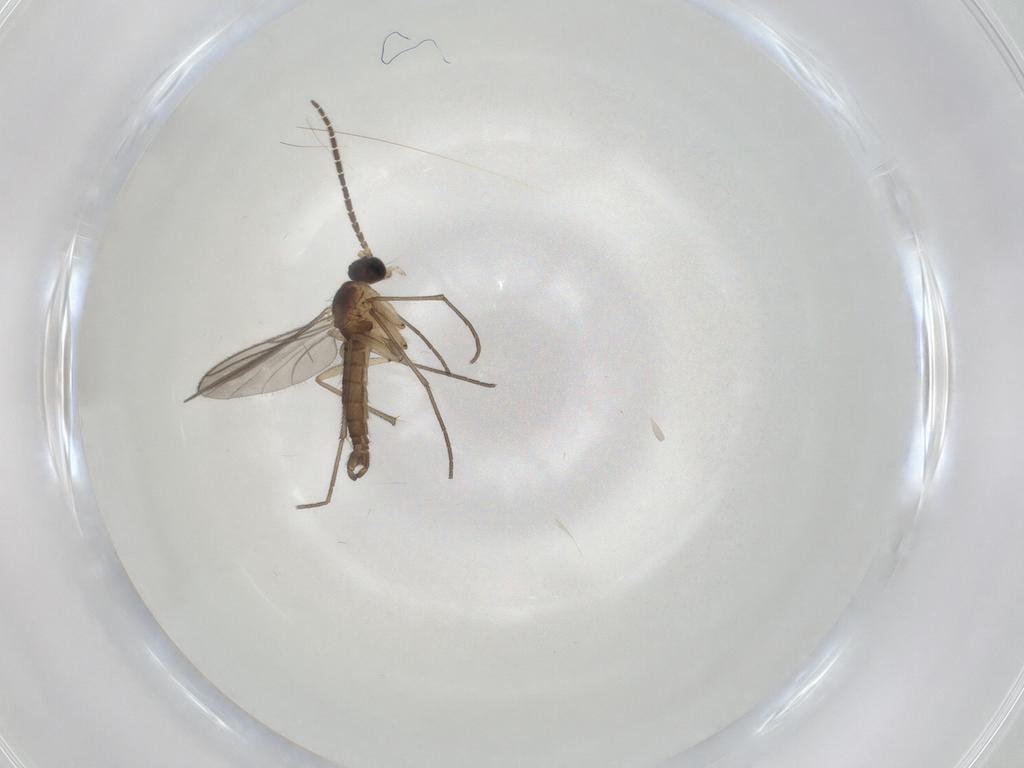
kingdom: Animalia
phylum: Arthropoda
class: Insecta
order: Diptera
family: Sciaridae
